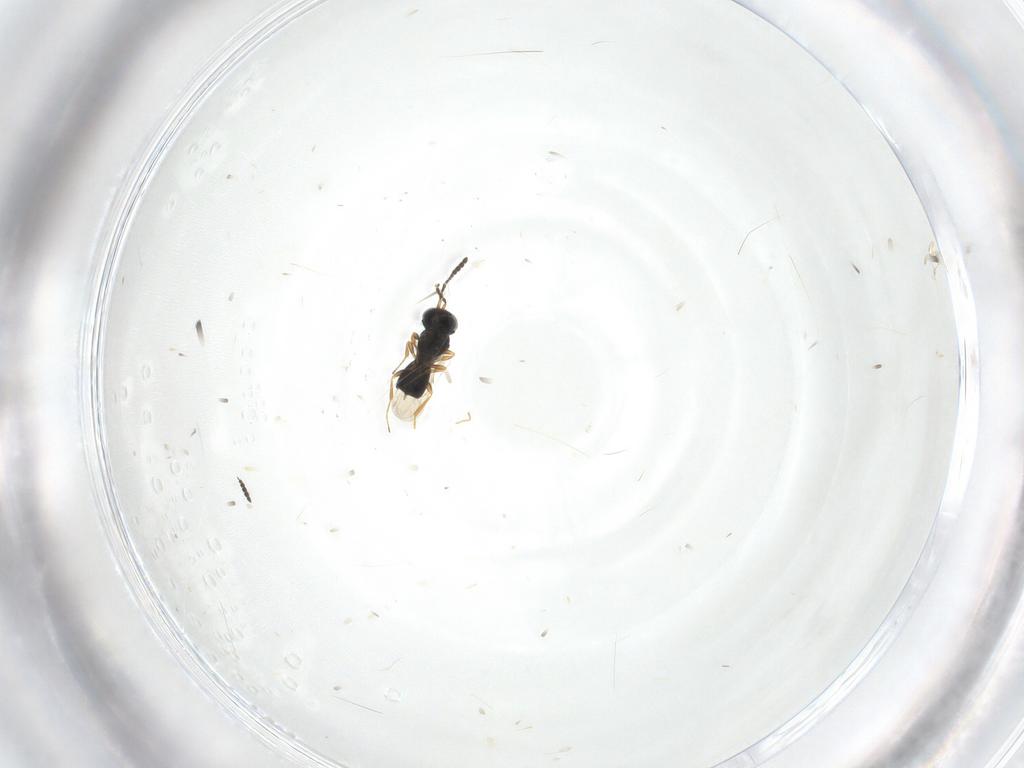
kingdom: Animalia
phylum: Arthropoda
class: Insecta
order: Hymenoptera
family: Scelionidae
